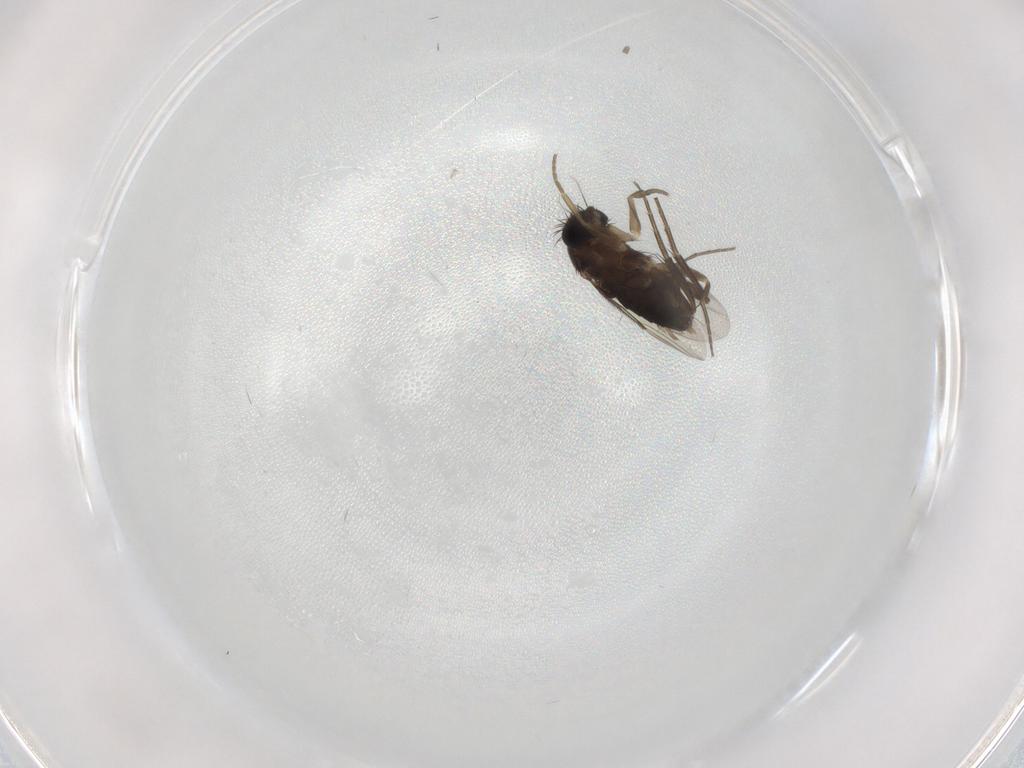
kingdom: Animalia
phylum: Arthropoda
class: Insecta
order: Diptera
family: Phoridae
